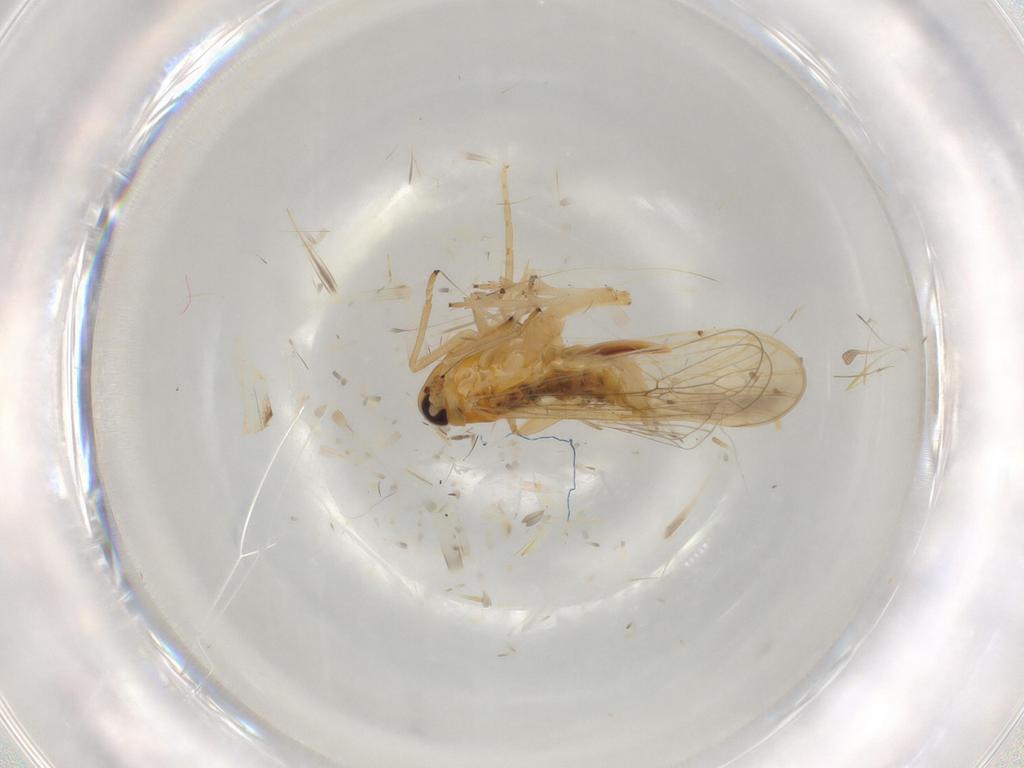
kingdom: Animalia
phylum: Arthropoda
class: Insecta
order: Hemiptera
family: Delphacidae
